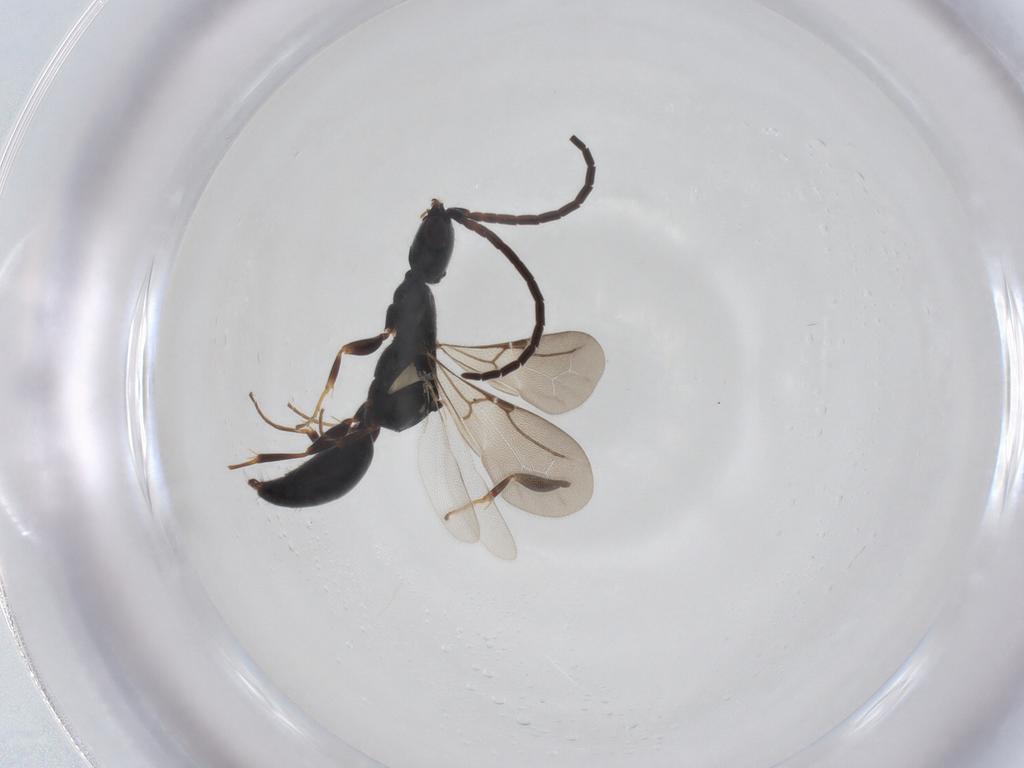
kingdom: Animalia
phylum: Arthropoda
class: Insecta
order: Hymenoptera
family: Bethylidae
